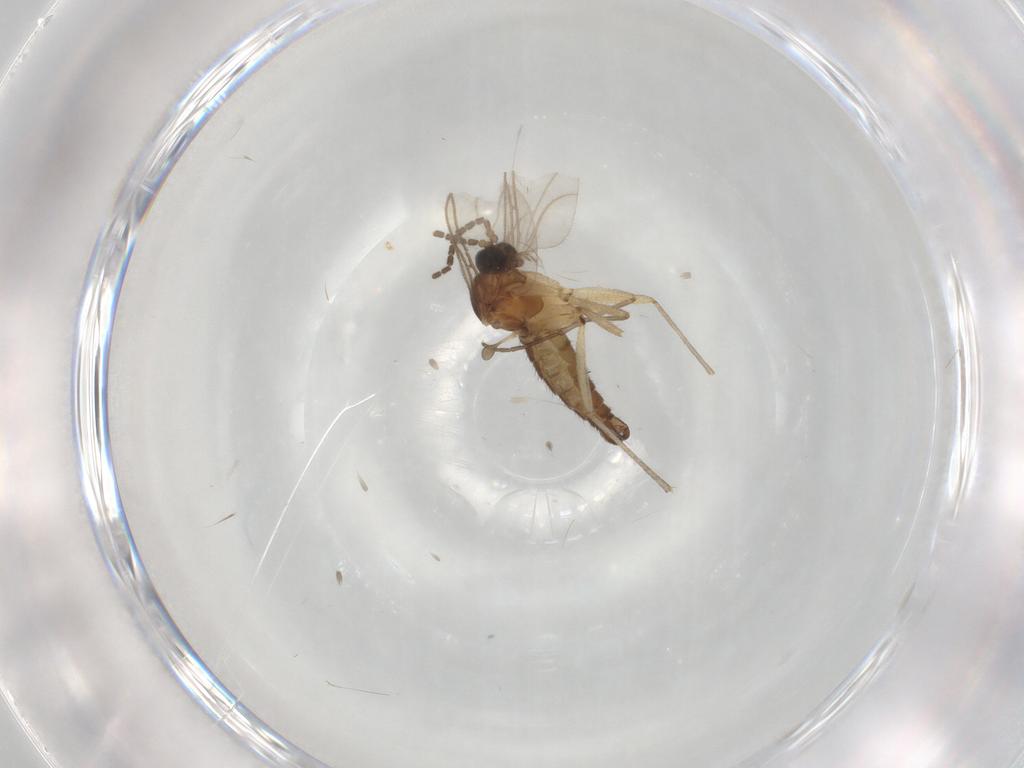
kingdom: Animalia
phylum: Arthropoda
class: Insecta
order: Diptera
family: Sciaridae
